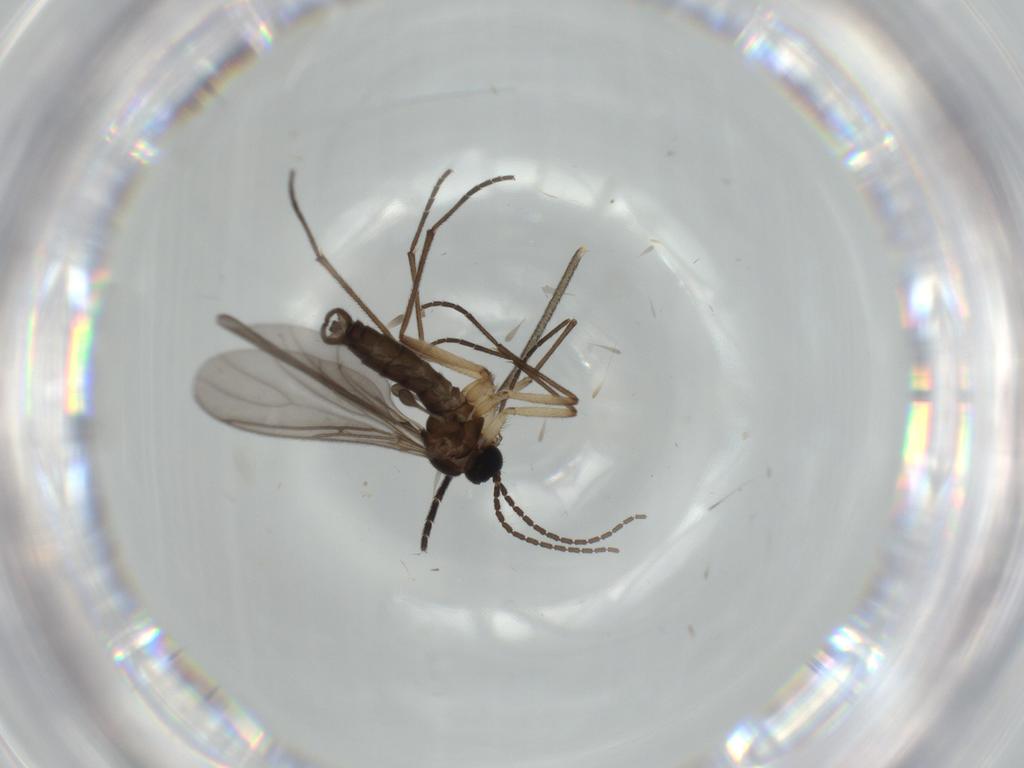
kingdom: Animalia
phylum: Arthropoda
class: Insecta
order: Diptera
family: Sciaridae
